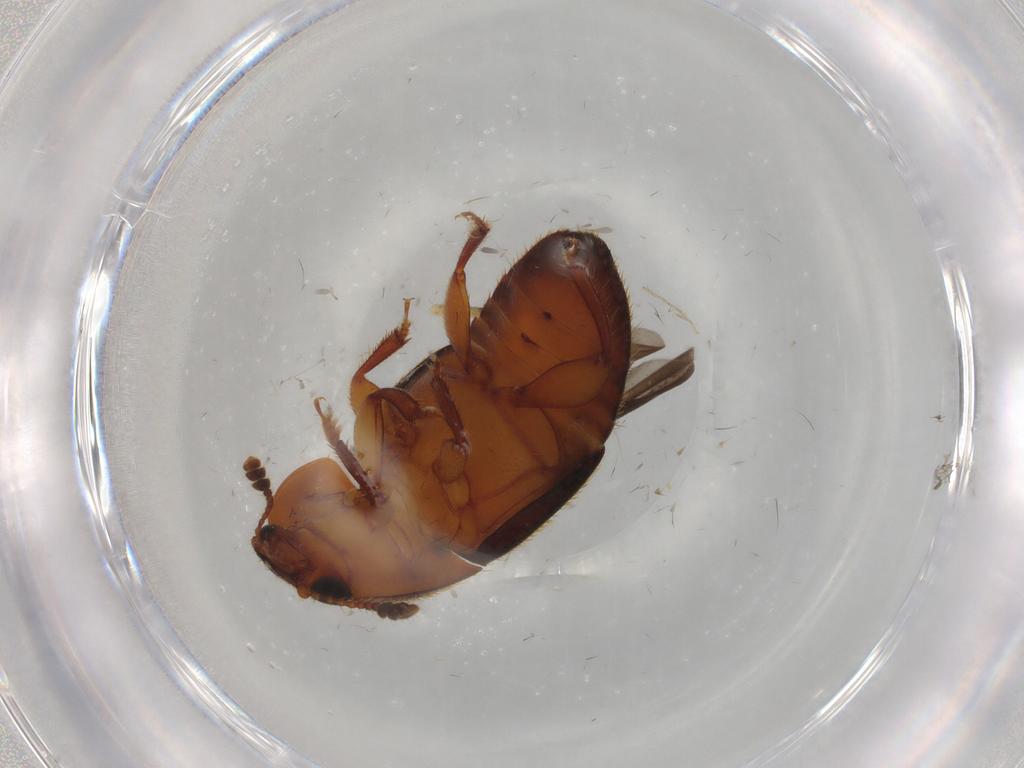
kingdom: Animalia
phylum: Arthropoda
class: Insecta
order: Coleoptera
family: Nitidulidae
